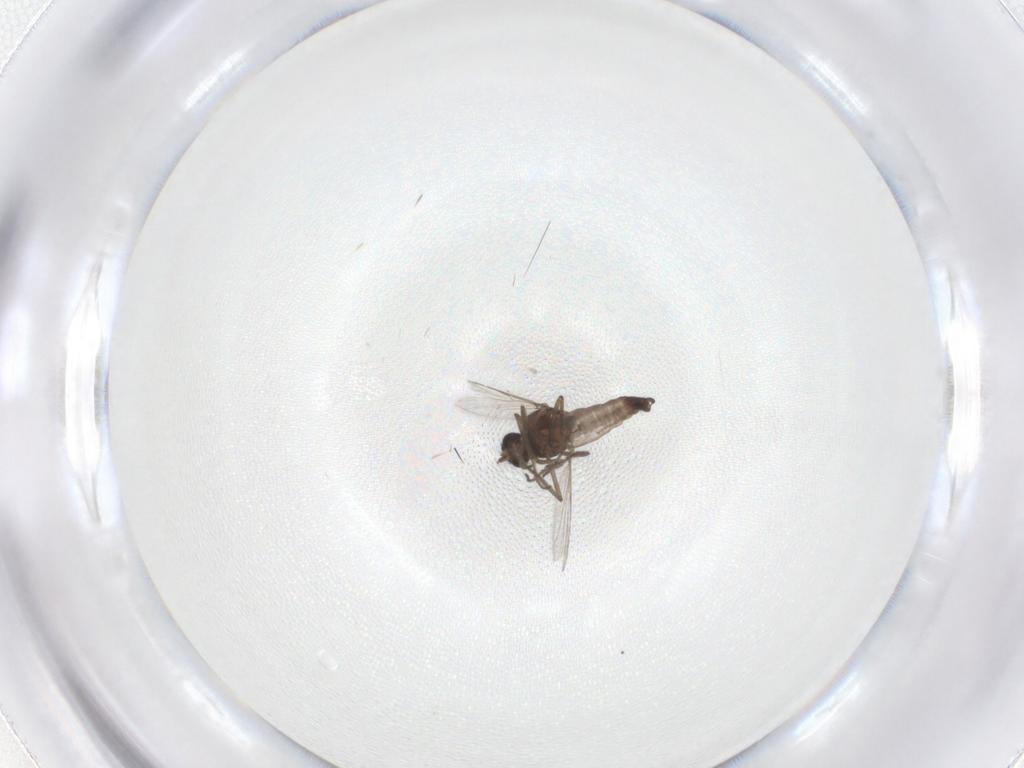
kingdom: Animalia
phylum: Arthropoda
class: Insecta
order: Diptera
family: Ceratopogonidae
